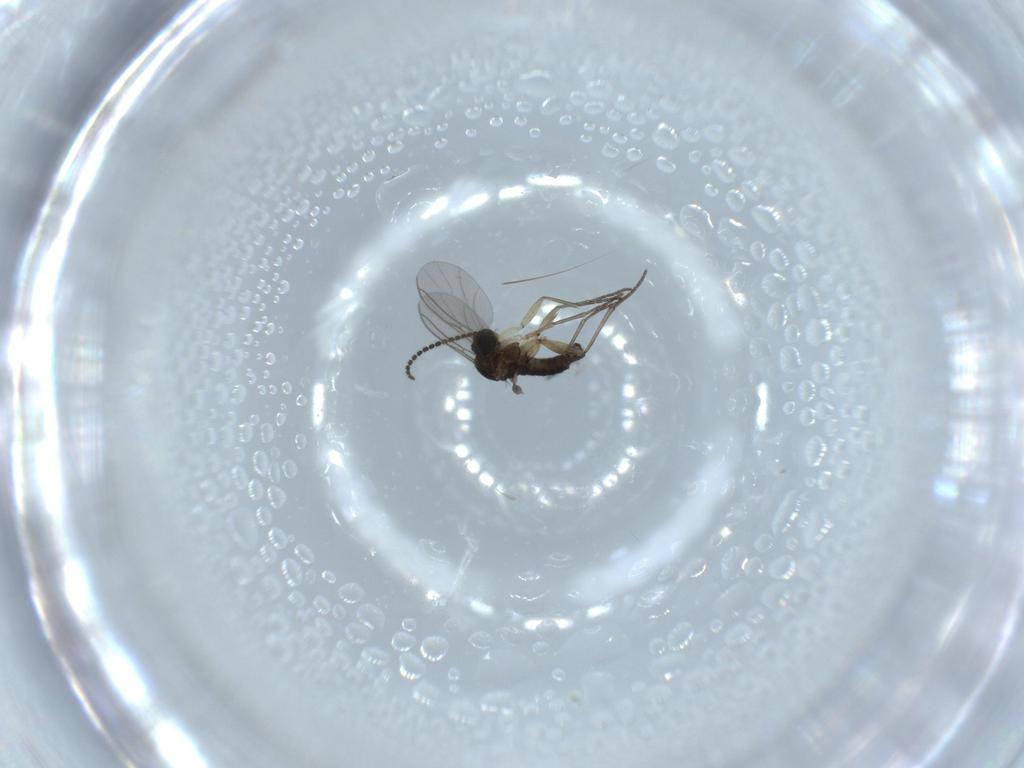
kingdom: Animalia
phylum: Arthropoda
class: Insecta
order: Diptera
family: Sciaridae
